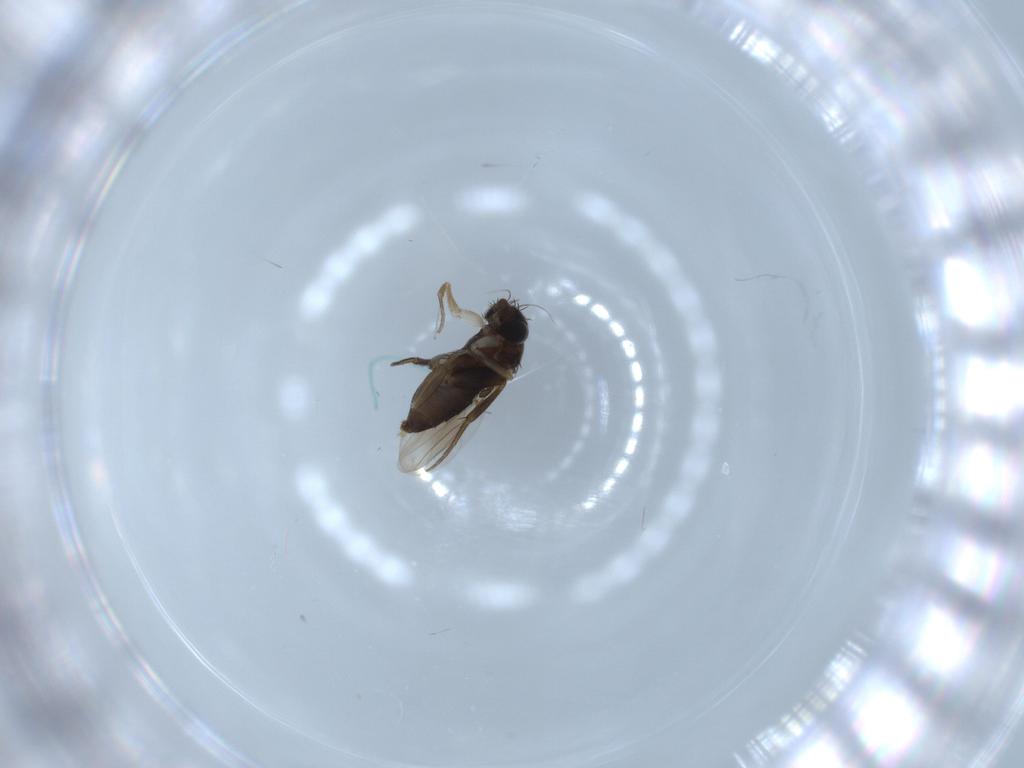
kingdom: Animalia
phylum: Arthropoda
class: Insecta
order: Diptera
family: Phoridae
